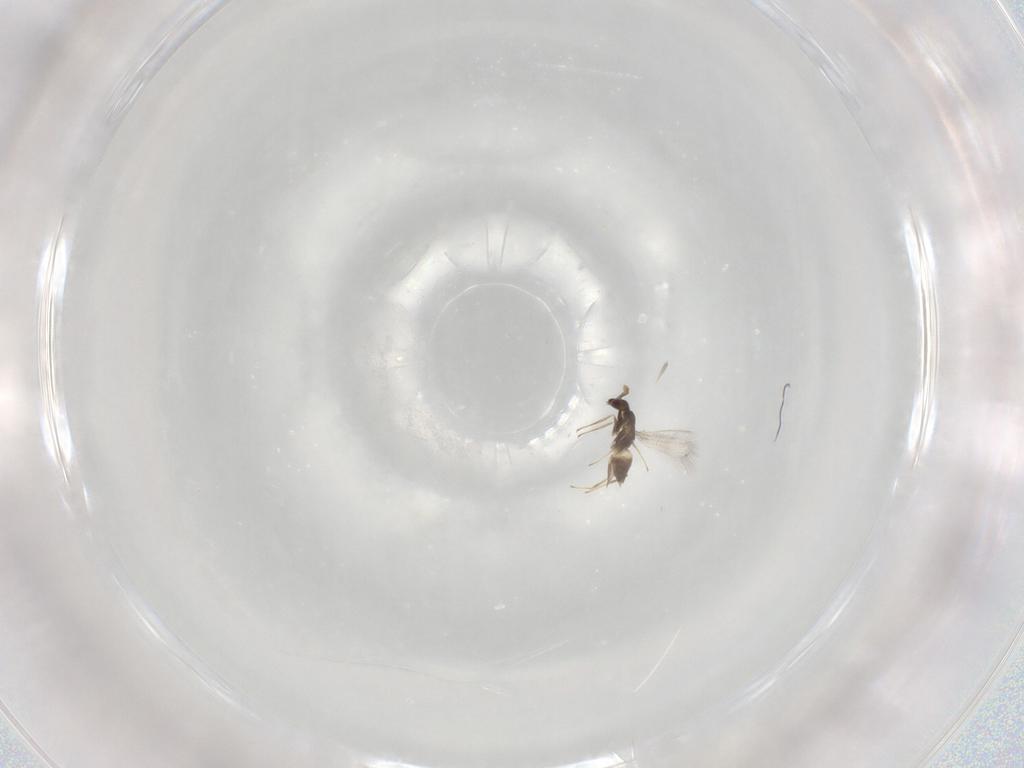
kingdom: Animalia
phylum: Arthropoda
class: Insecta
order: Hymenoptera
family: Mymaridae
